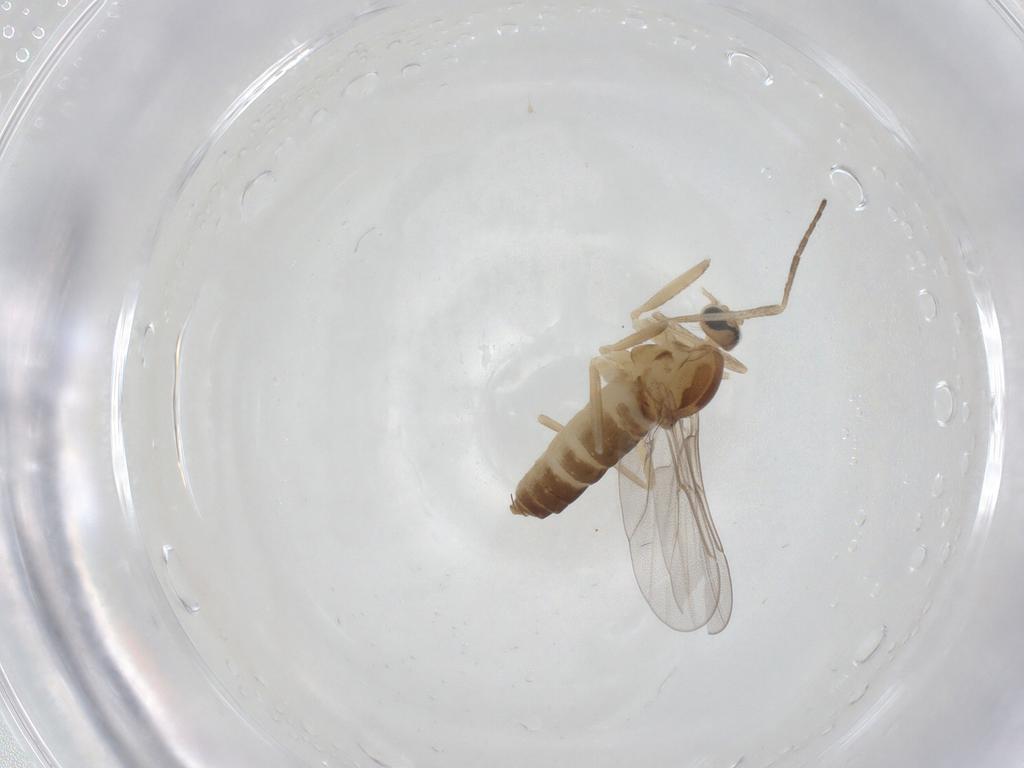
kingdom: Animalia
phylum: Arthropoda
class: Insecta
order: Diptera
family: Cecidomyiidae
